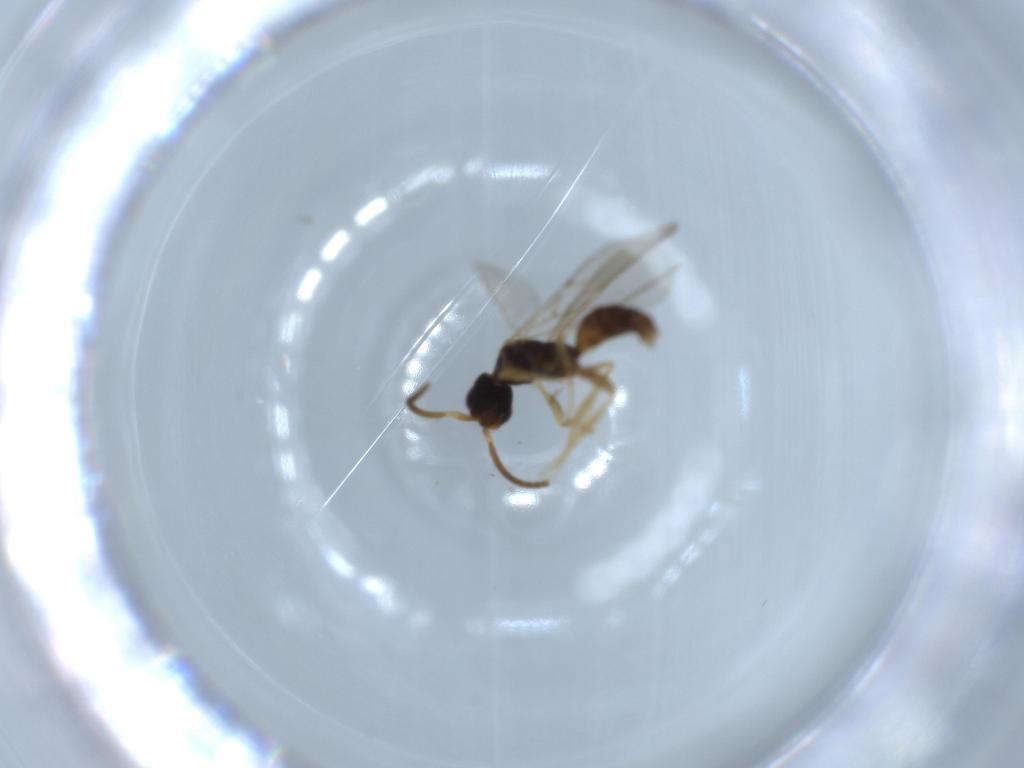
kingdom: Animalia
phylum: Arthropoda
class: Insecta
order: Hymenoptera
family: Bethylidae
